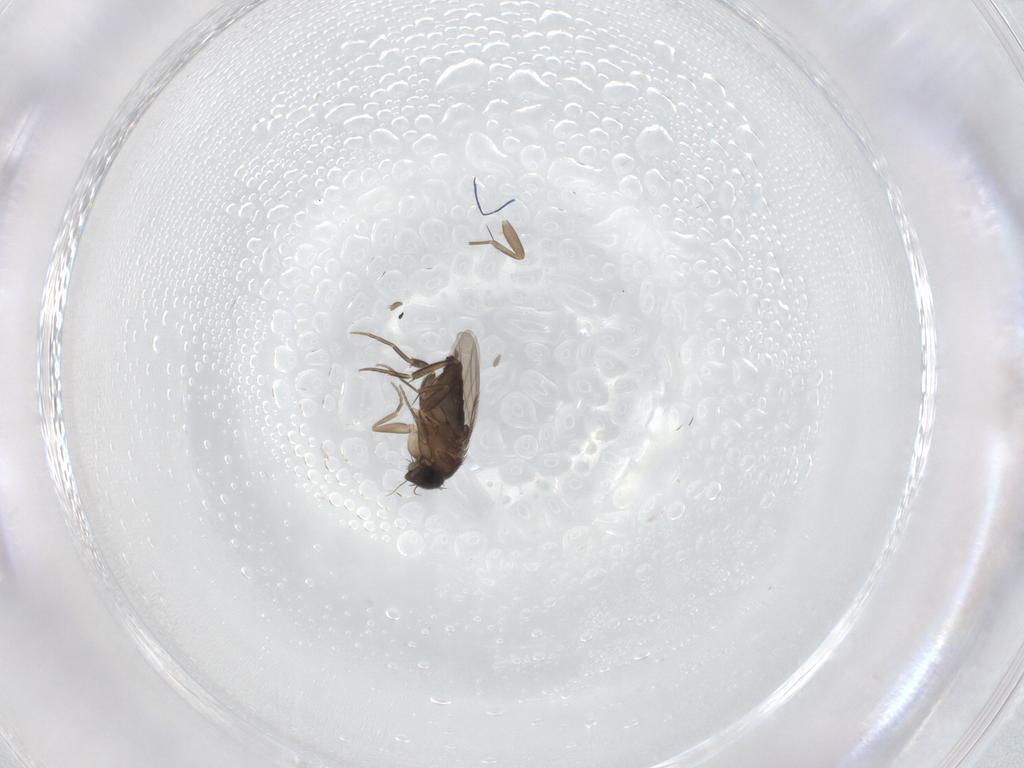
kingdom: Animalia
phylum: Arthropoda
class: Insecta
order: Diptera
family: Phoridae
